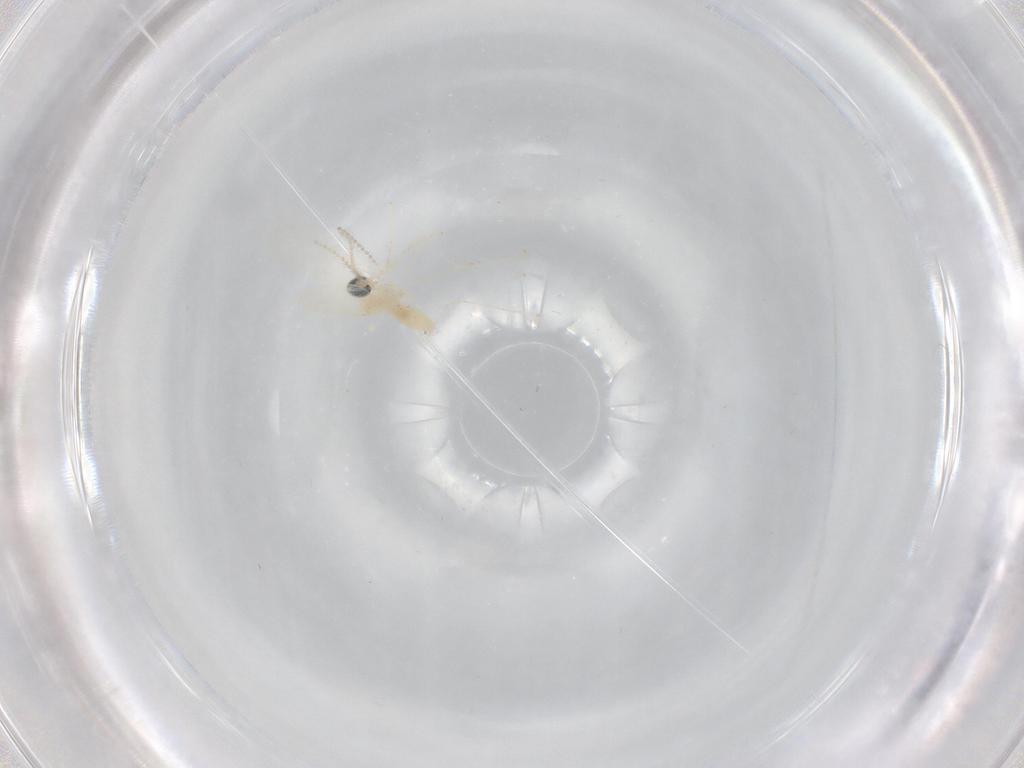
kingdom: Animalia
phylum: Arthropoda
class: Insecta
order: Diptera
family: Cecidomyiidae
